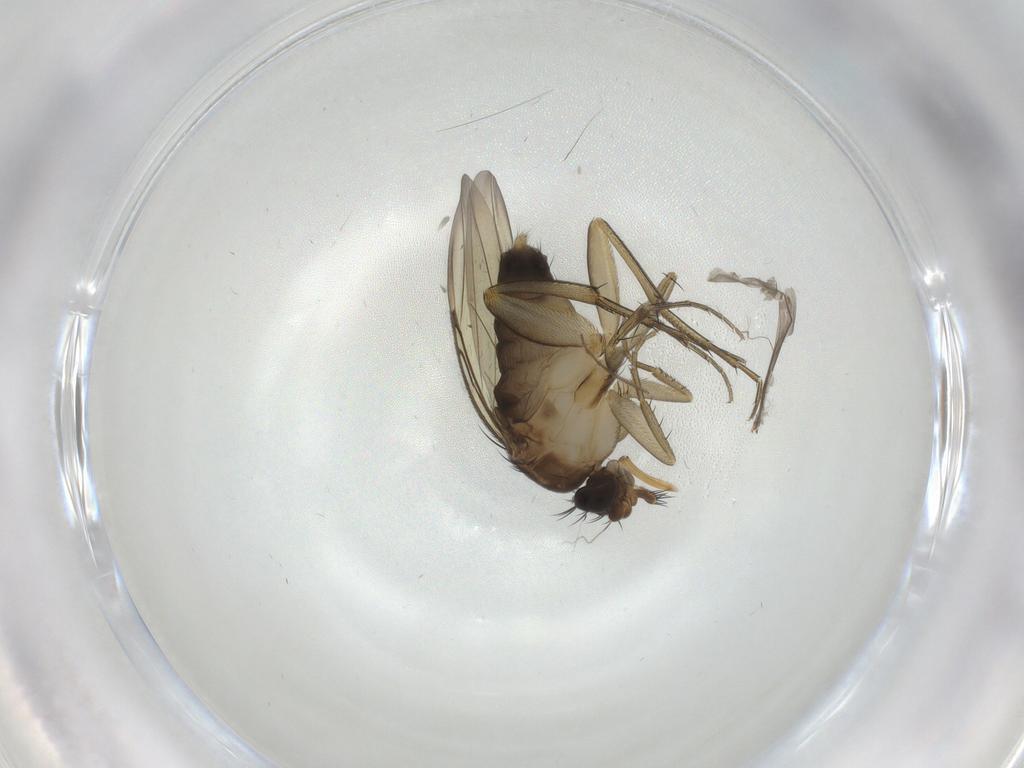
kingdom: Animalia
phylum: Arthropoda
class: Insecta
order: Diptera
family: Phoridae
